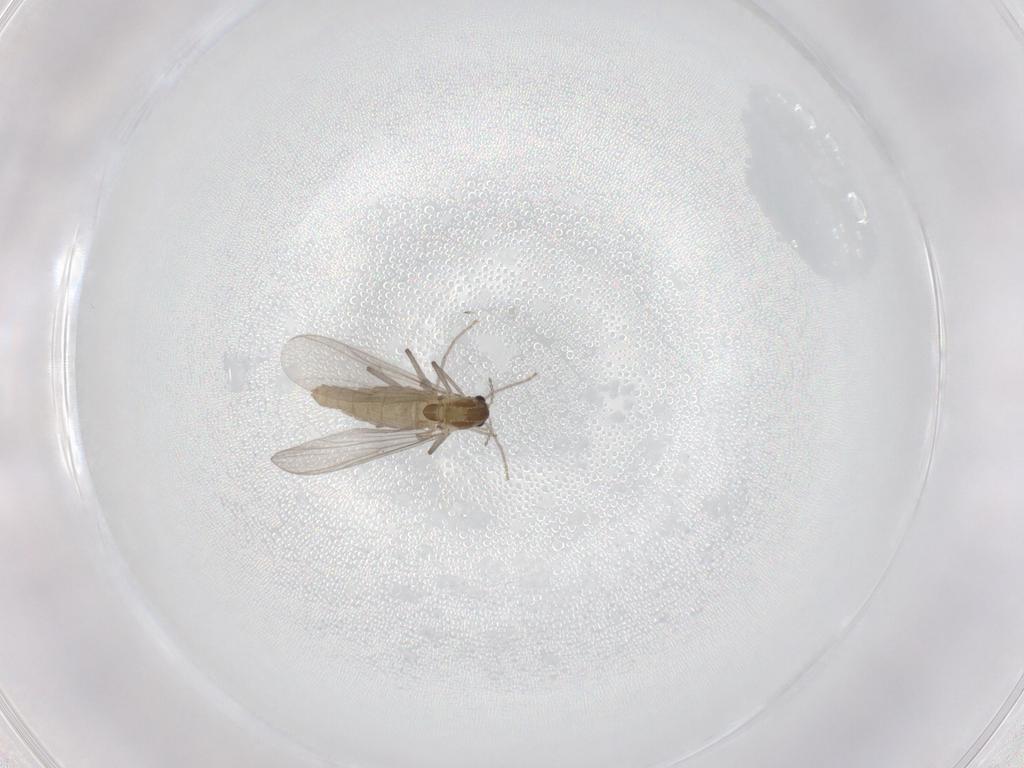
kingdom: Animalia
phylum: Arthropoda
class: Insecta
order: Diptera
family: Chironomidae
